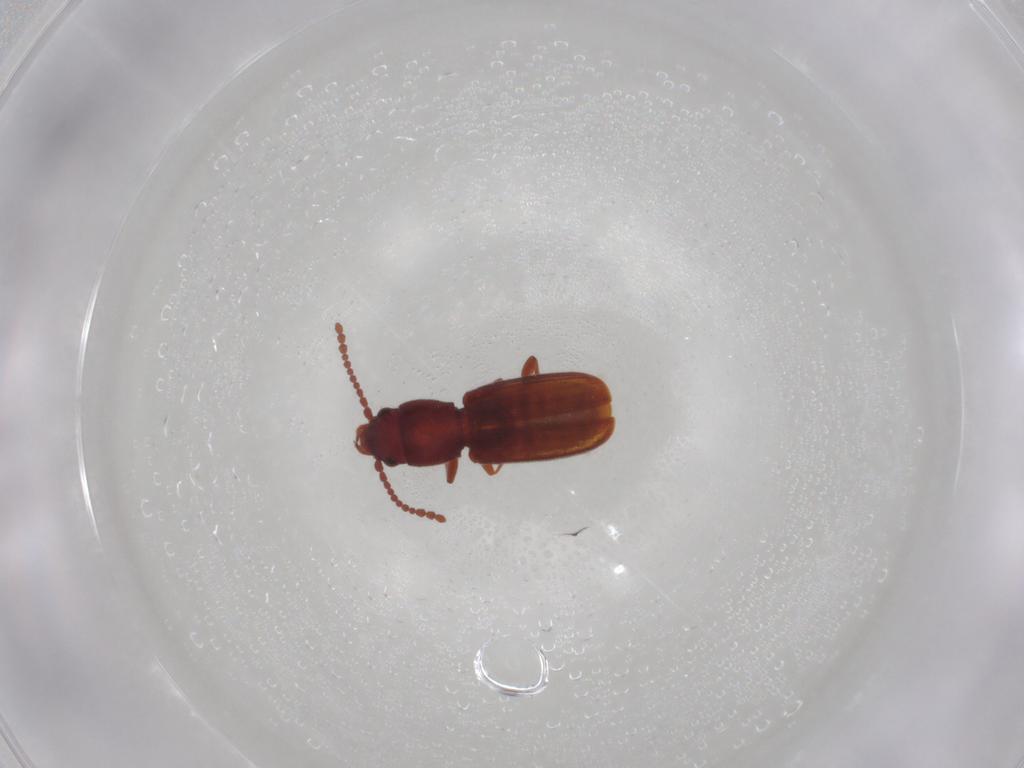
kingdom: Animalia
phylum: Arthropoda
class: Insecta
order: Coleoptera
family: Laemophloeidae
